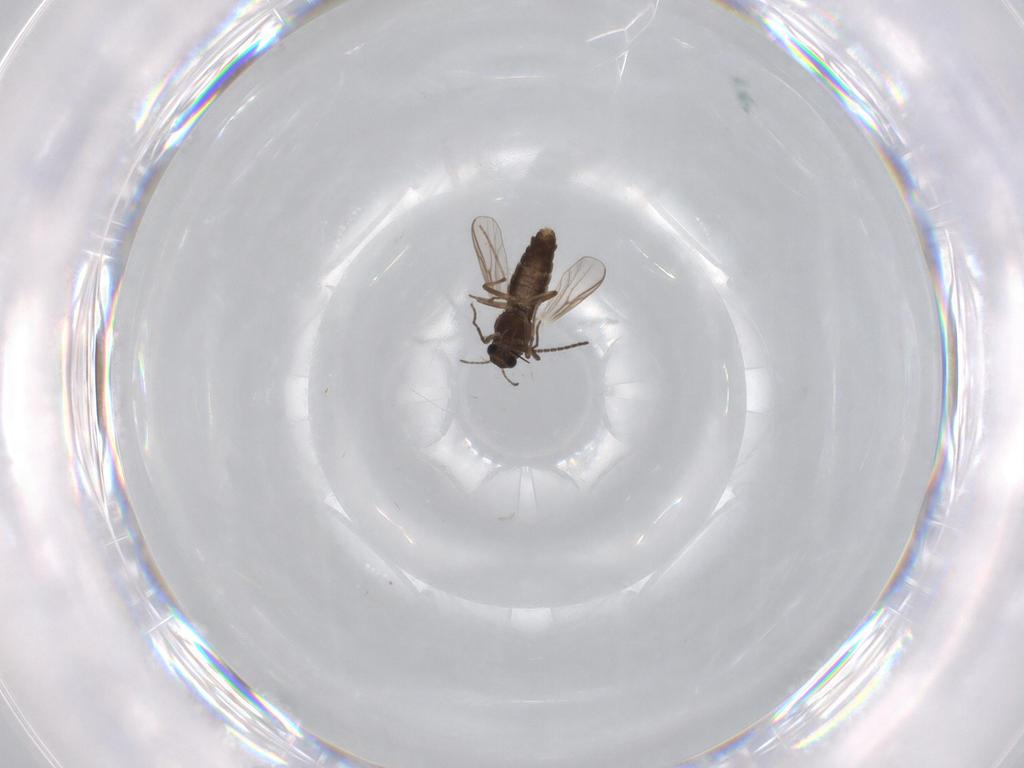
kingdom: Animalia
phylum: Arthropoda
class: Insecta
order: Diptera
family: Chironomidae
